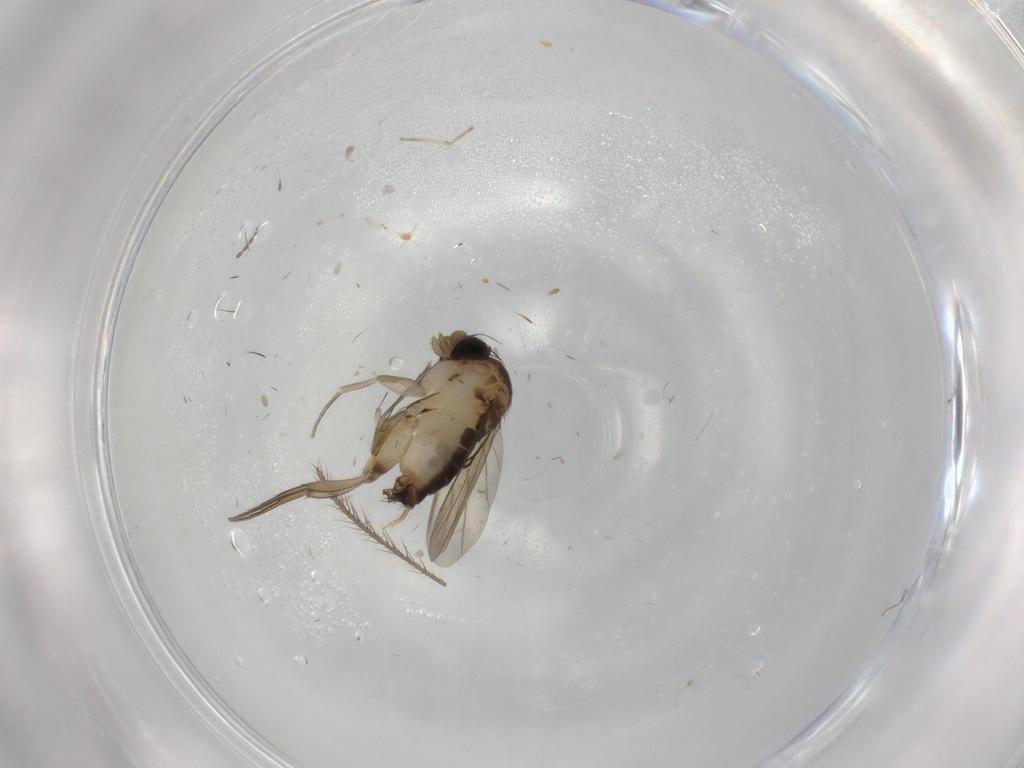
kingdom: Animalia
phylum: Arthropoda
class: Insecta
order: Diptera
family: Phoridae
